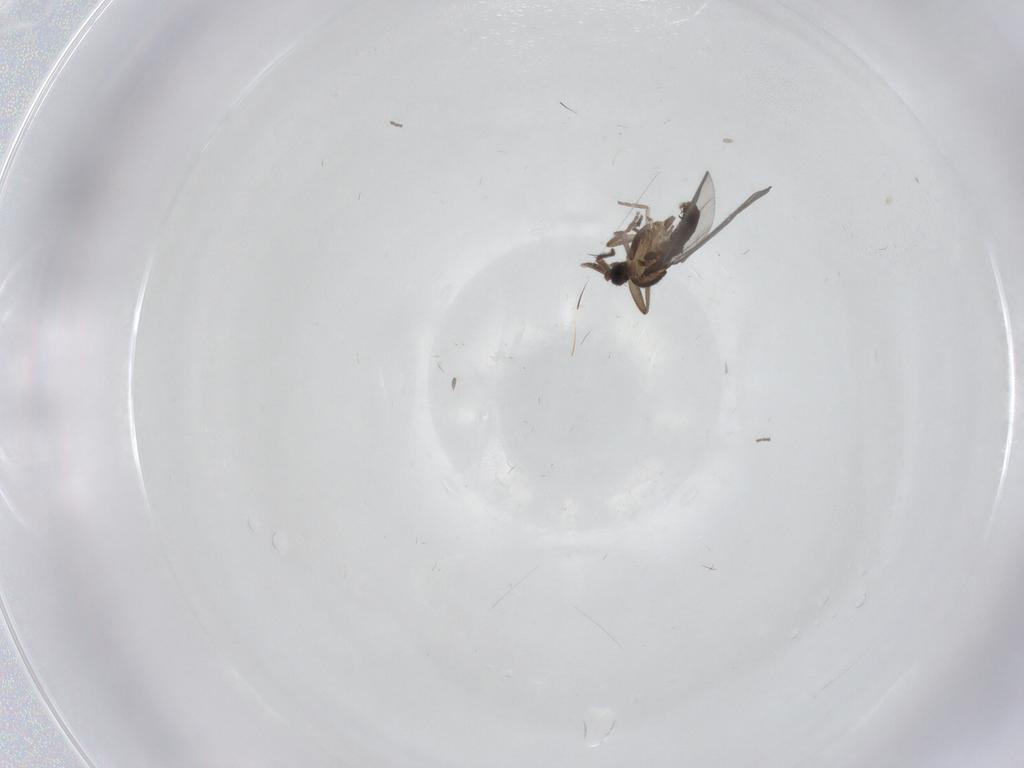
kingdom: Animalia
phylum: Arthropoda
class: Insecta
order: Diptera
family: Phoridae
